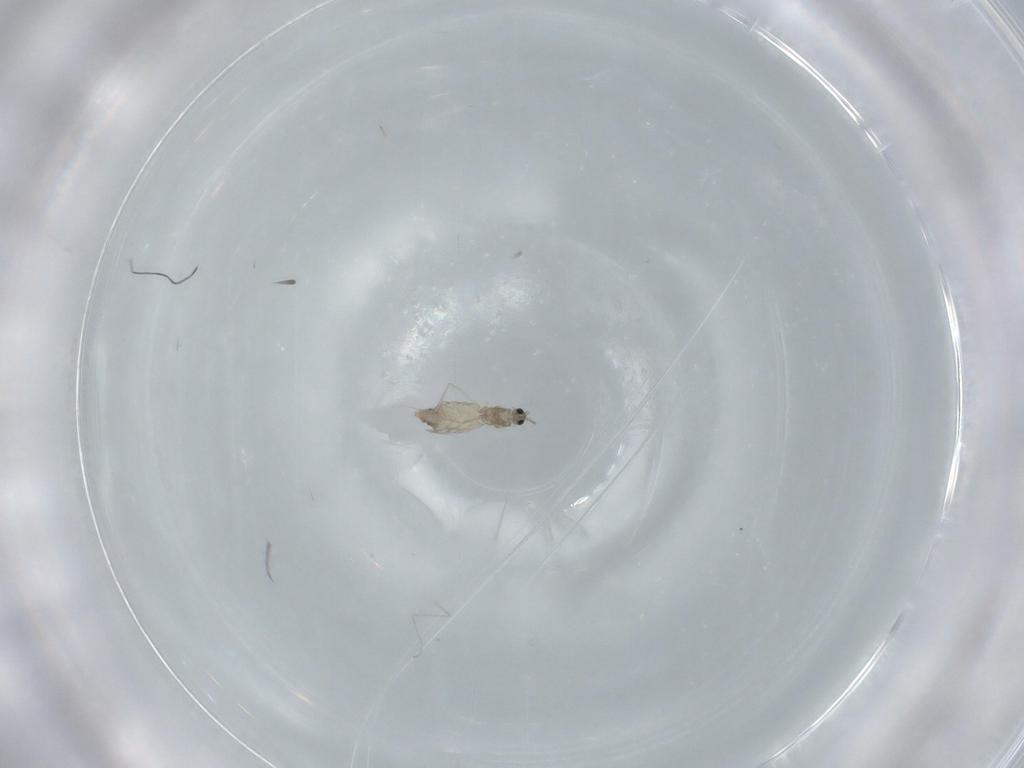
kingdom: Animalia
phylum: Arthropoda
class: Insecta
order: Diptera
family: Cecidomyiidae
